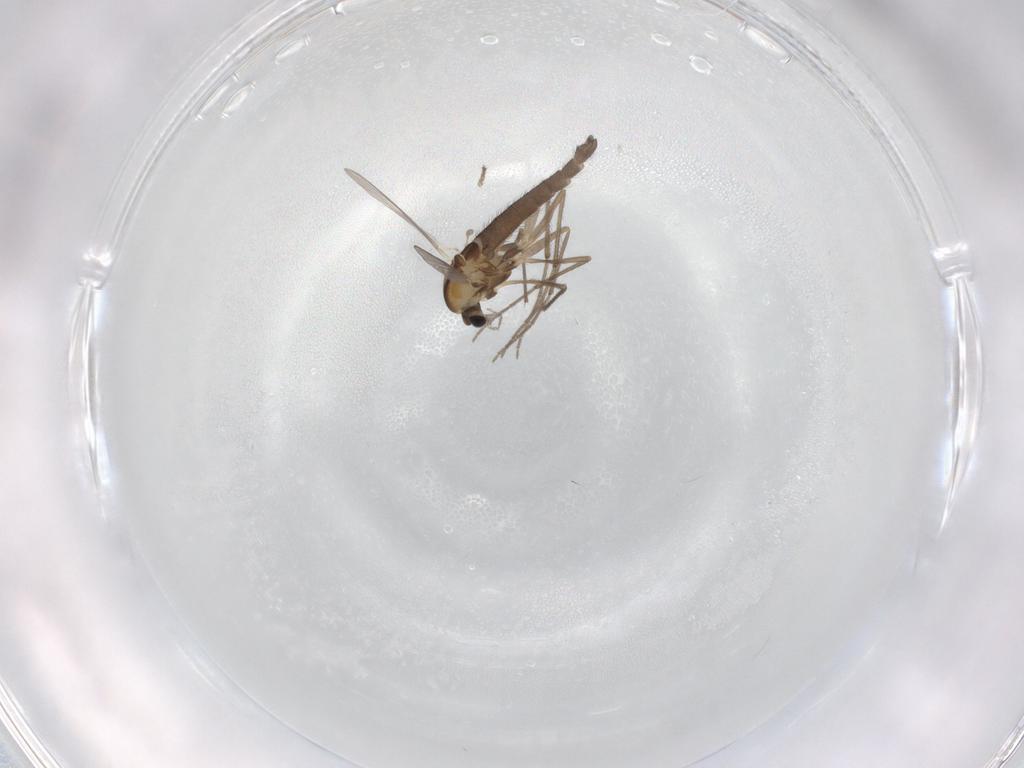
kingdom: Animalia
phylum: Arthropoda
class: Insecta
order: Diptera
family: Chironomidae
